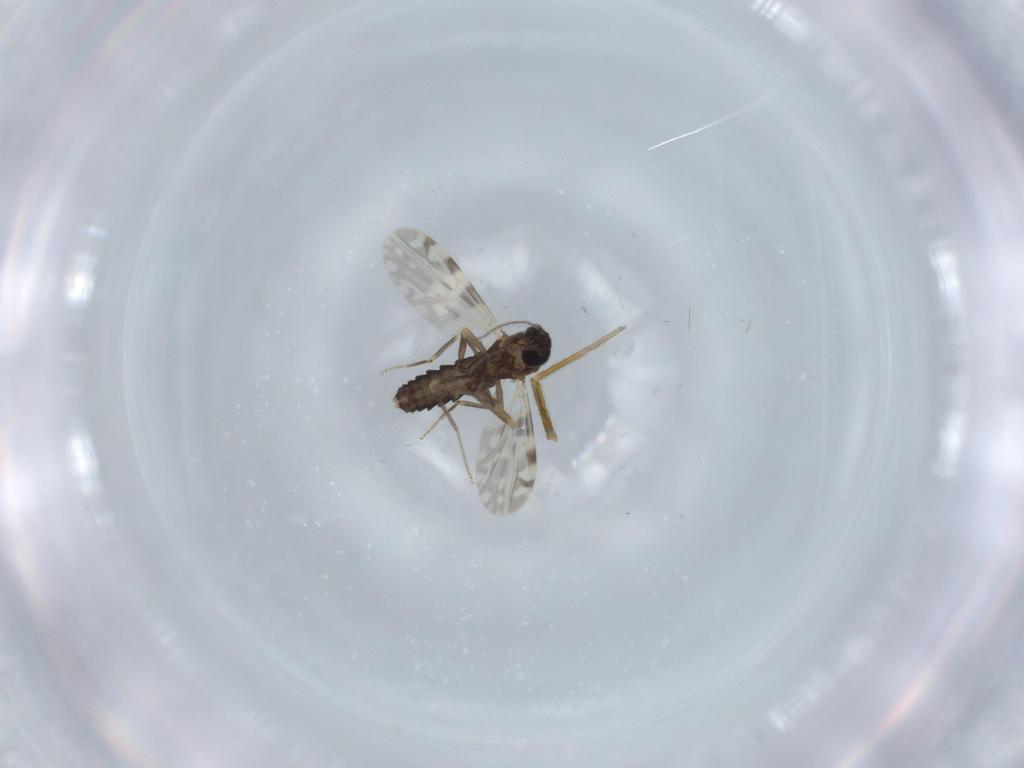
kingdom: Animalia
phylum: Arthropoda
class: Insecta
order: Diptera
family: Ceratopogonidae
